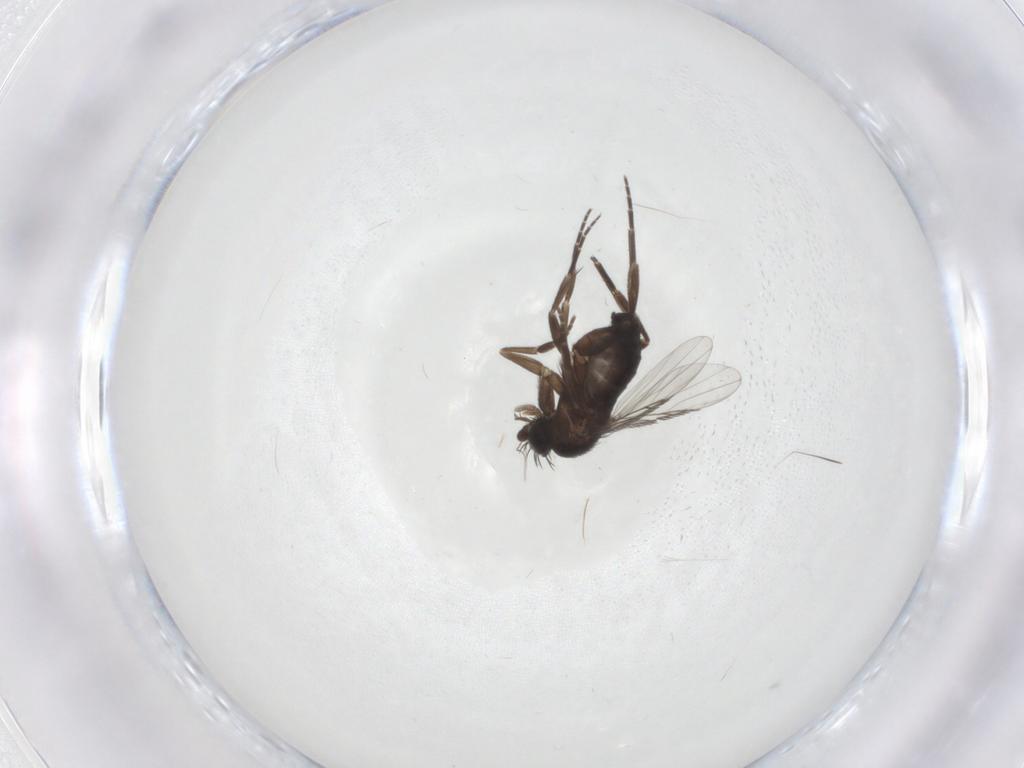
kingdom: Animalia
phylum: Arthropoda
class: Insecta
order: Diptera
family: Phoridae
